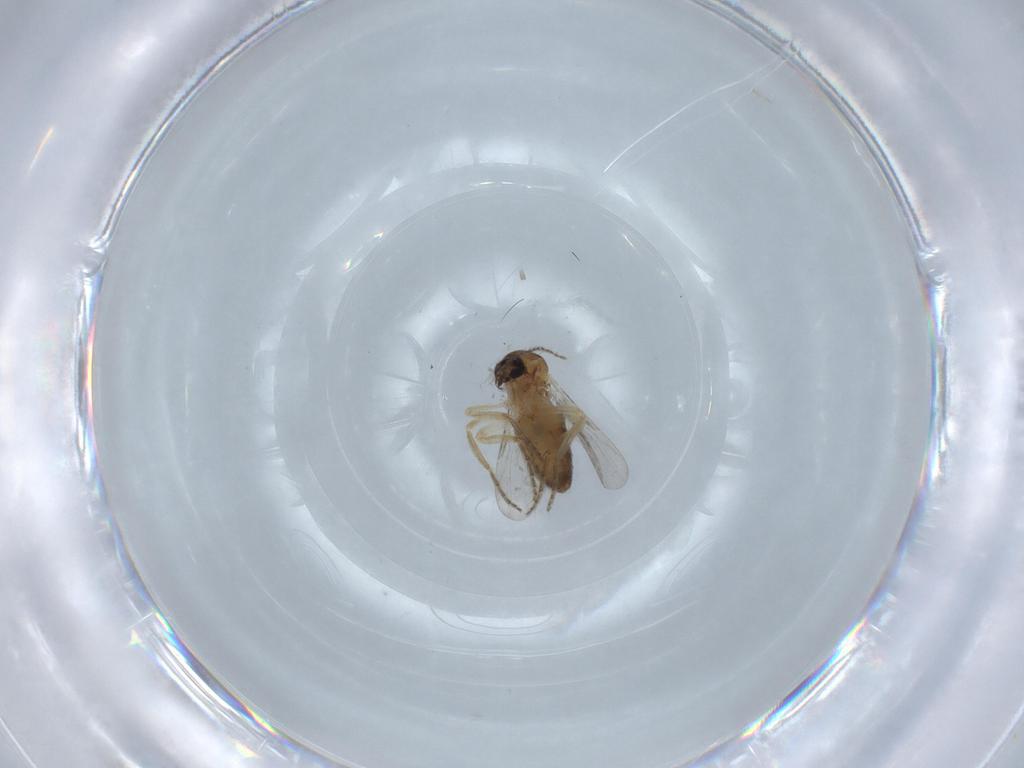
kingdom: Animalia
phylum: Arthropoda
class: Insecta
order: Diptera
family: Ceratopogonidae
